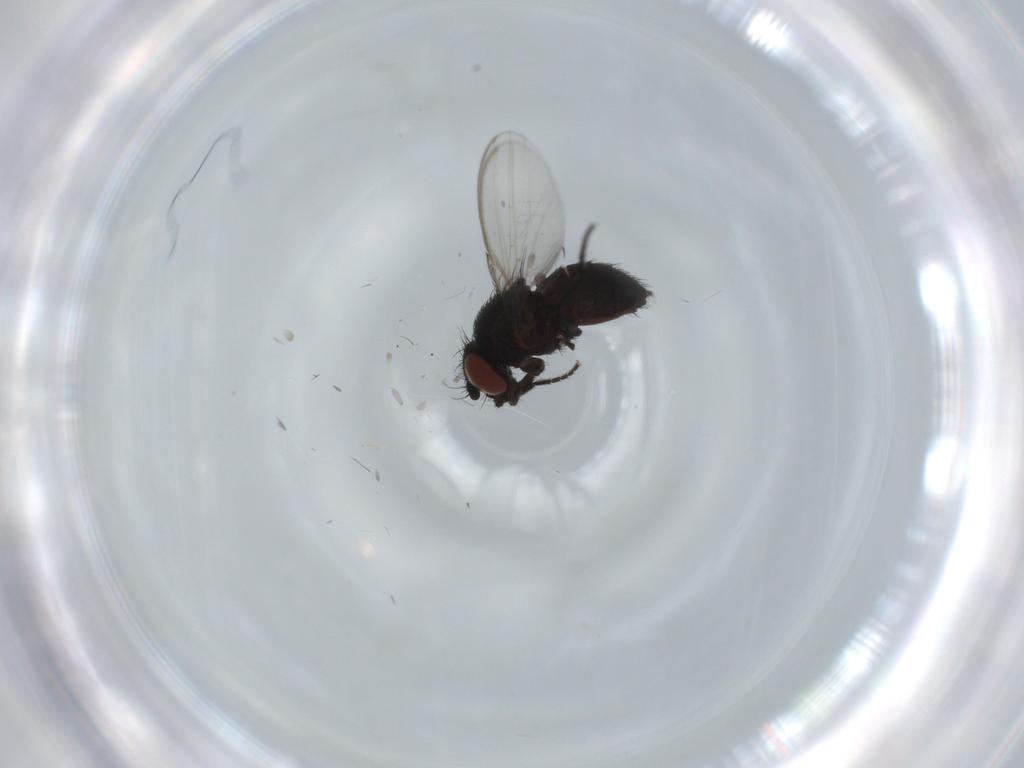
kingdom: Animalia
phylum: Arthropoda
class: Insecta
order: Diptera
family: Milichiidae
